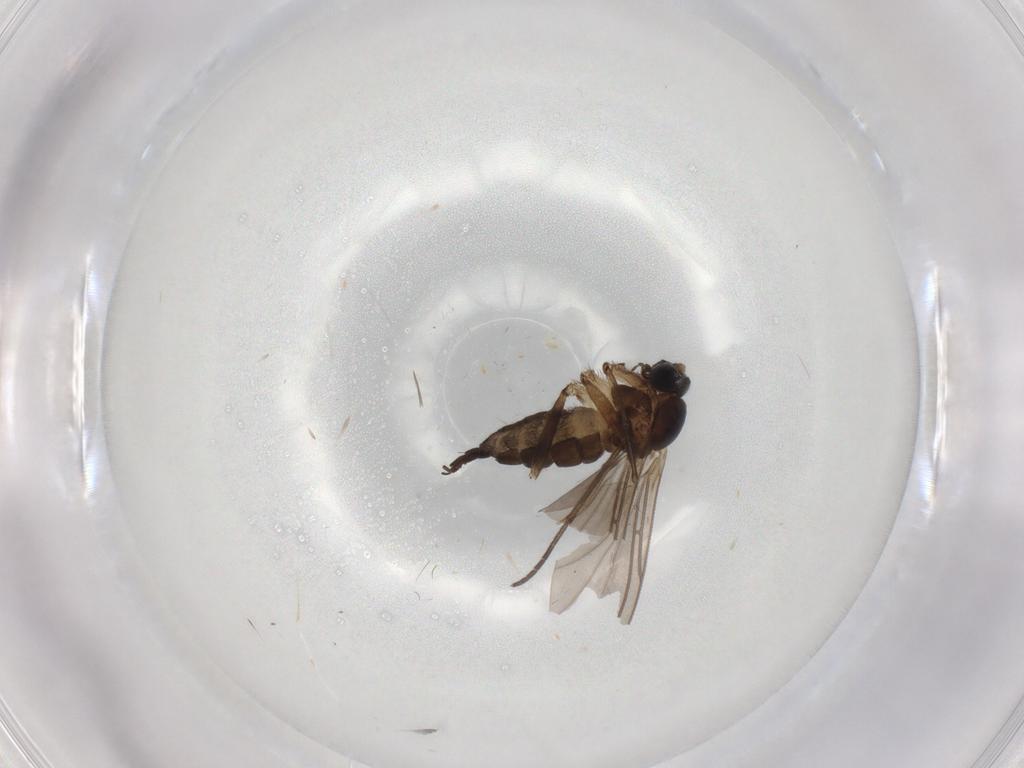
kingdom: Animalia
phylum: Arthropoda
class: Insecta
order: Diptera
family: Sciaridae
